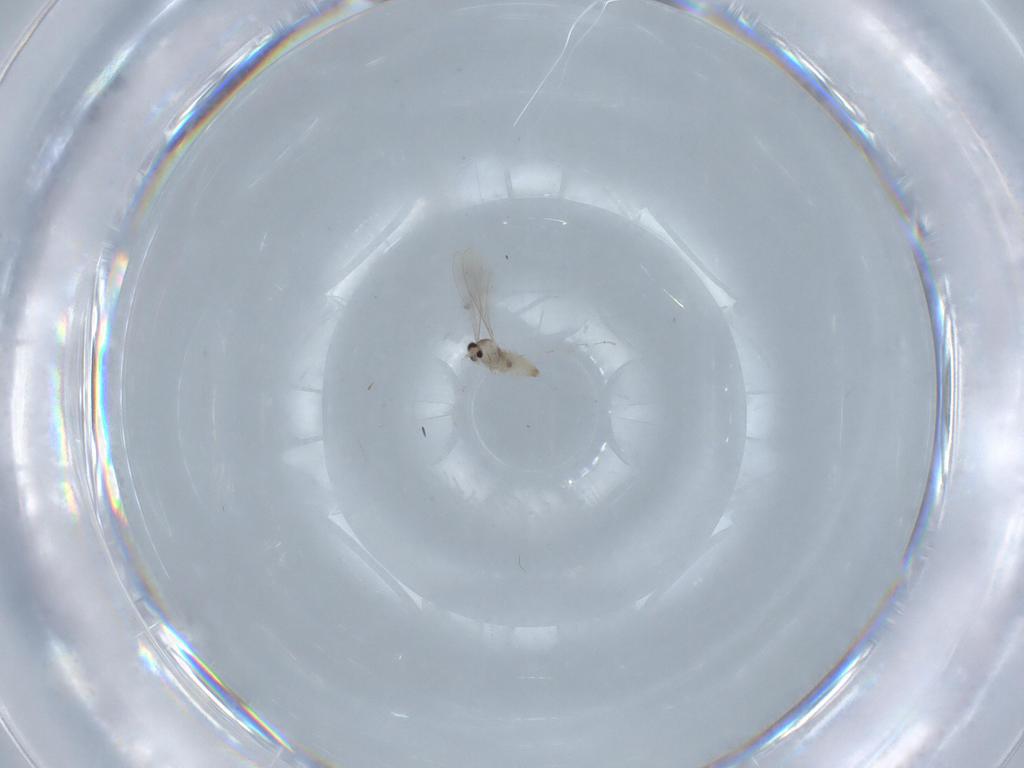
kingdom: Animalia
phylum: Arthropoda
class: Insecta
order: Diptera
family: Cecidomyiidae
